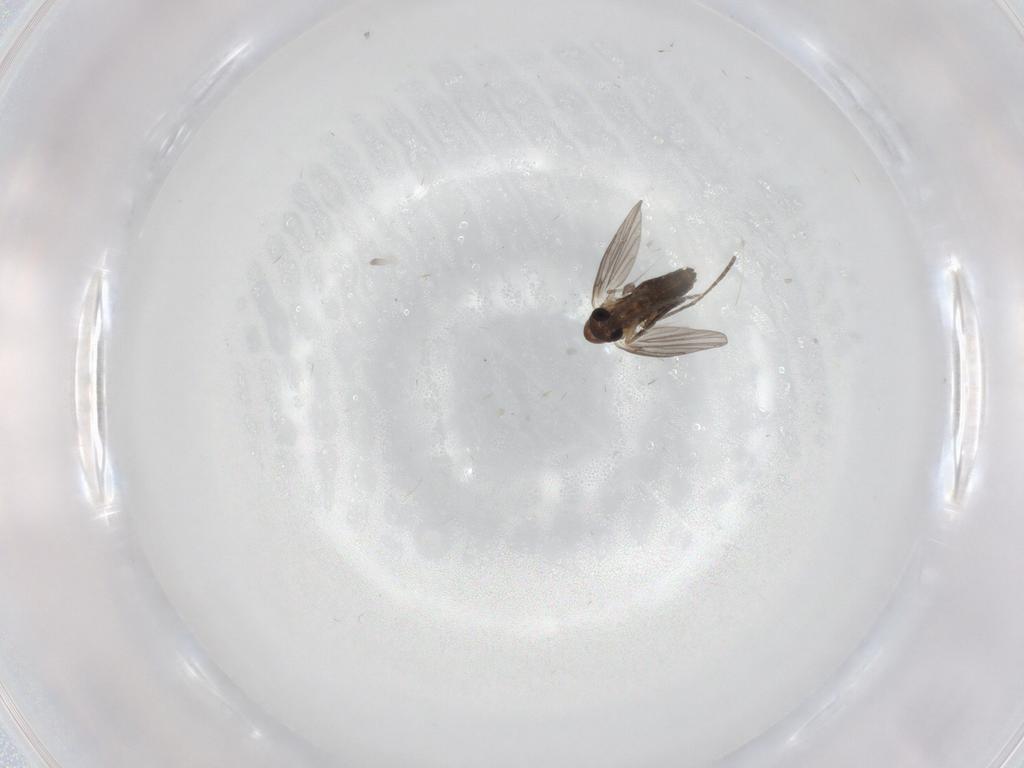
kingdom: Animalia
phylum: Arthropoda
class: Insecta
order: Diptera
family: Psychodidae
